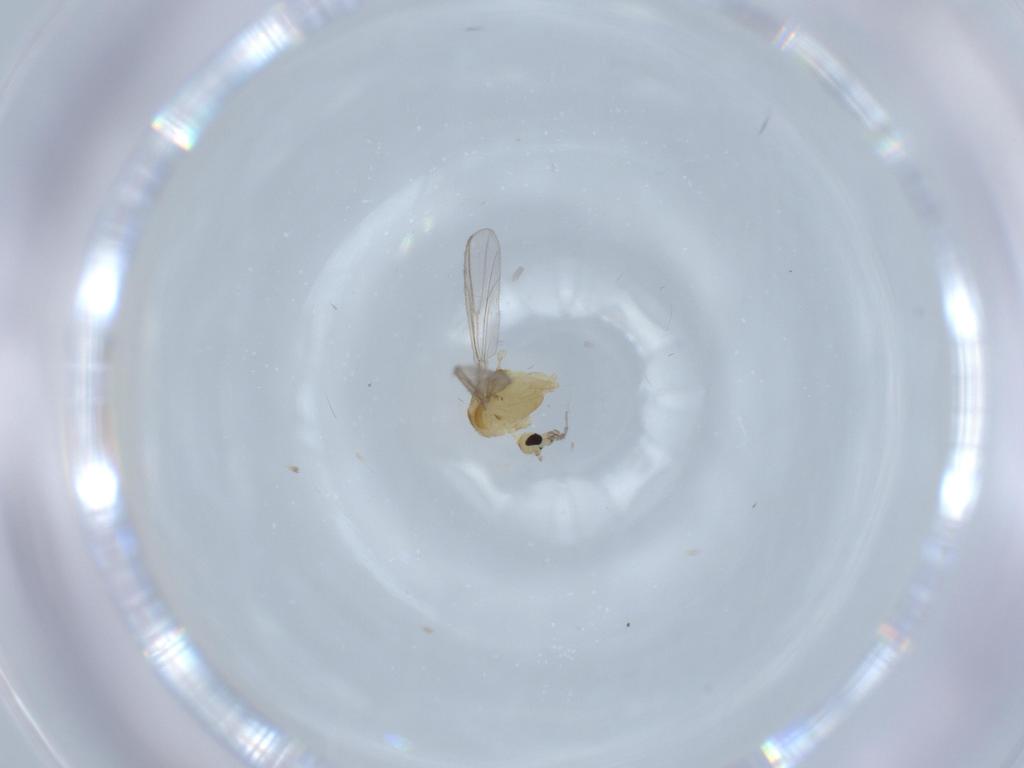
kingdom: Animalia
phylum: Arthropoda
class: Insecta
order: Diptera
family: Chironomidae
